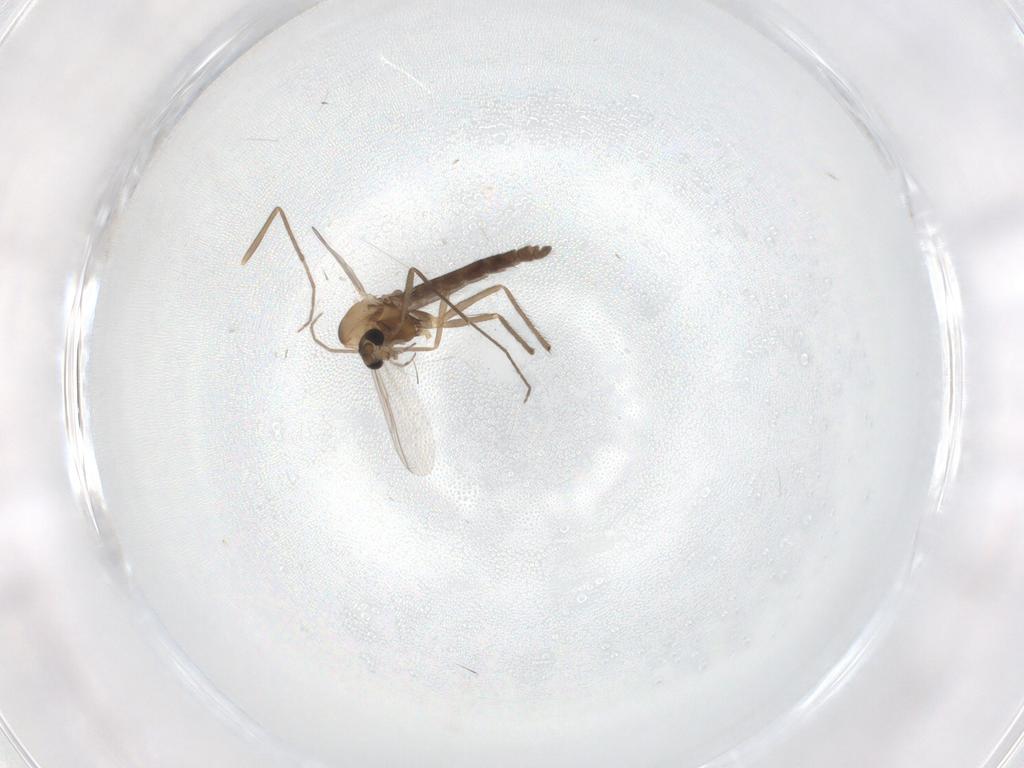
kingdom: Animalia
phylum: Arthropoda
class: Insecta
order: Diptera
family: Chironomidae
